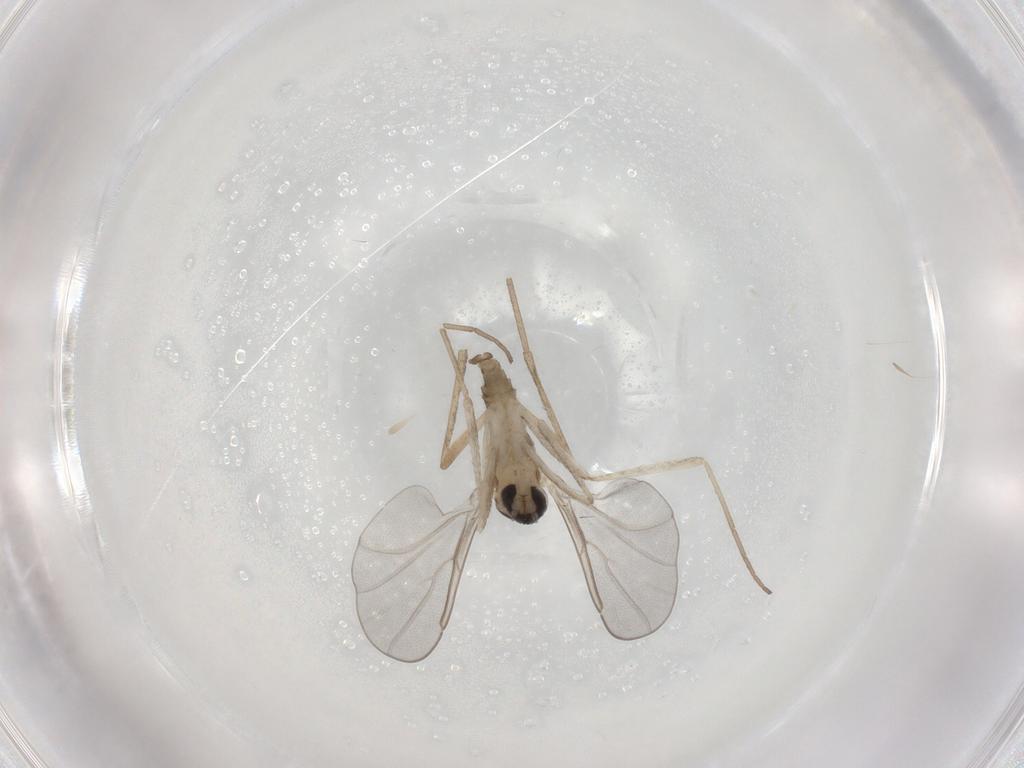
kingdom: Animalia
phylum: Arthropoda
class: Insecta
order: Diptera
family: Cecidomyiidae
